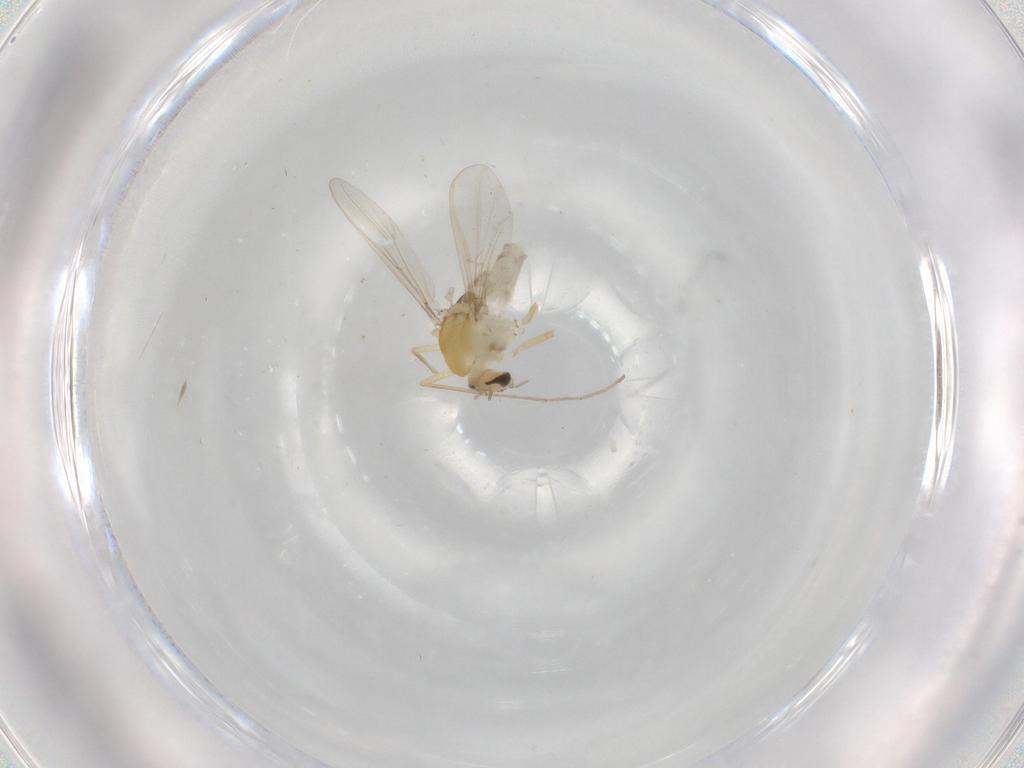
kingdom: Animalia
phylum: Arthropoda
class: Insecta
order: Diptera
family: Chironomidae
